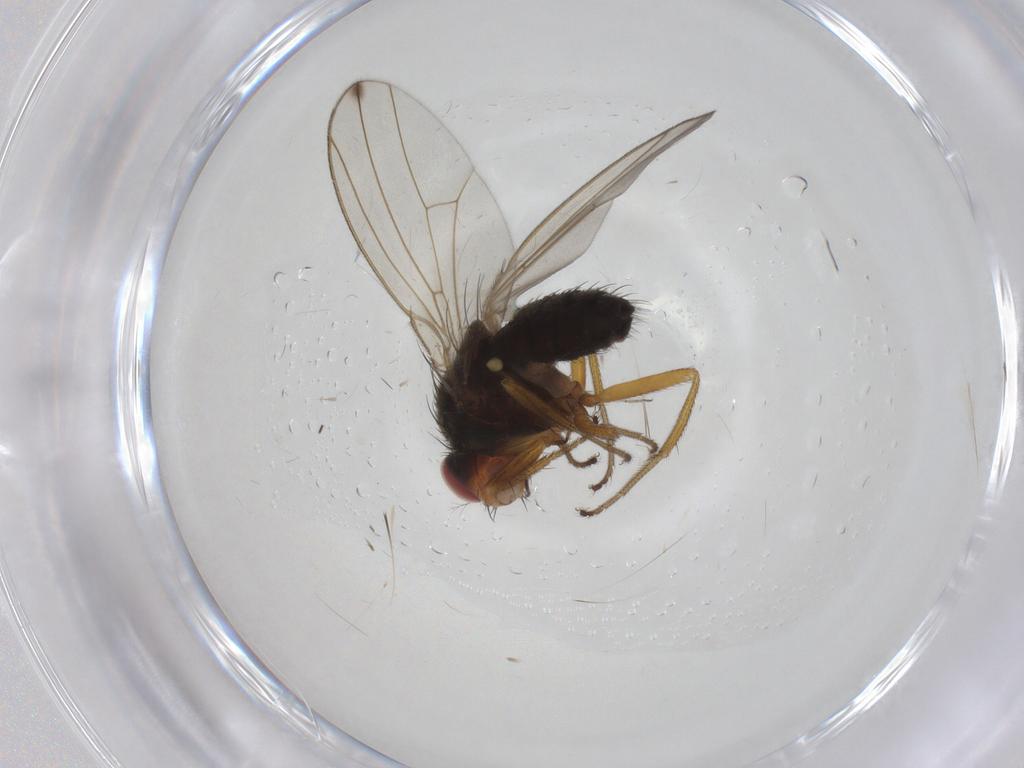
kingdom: Animalia
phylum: Arthropoda
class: Insecta
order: Diptera
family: Drosophilidae
